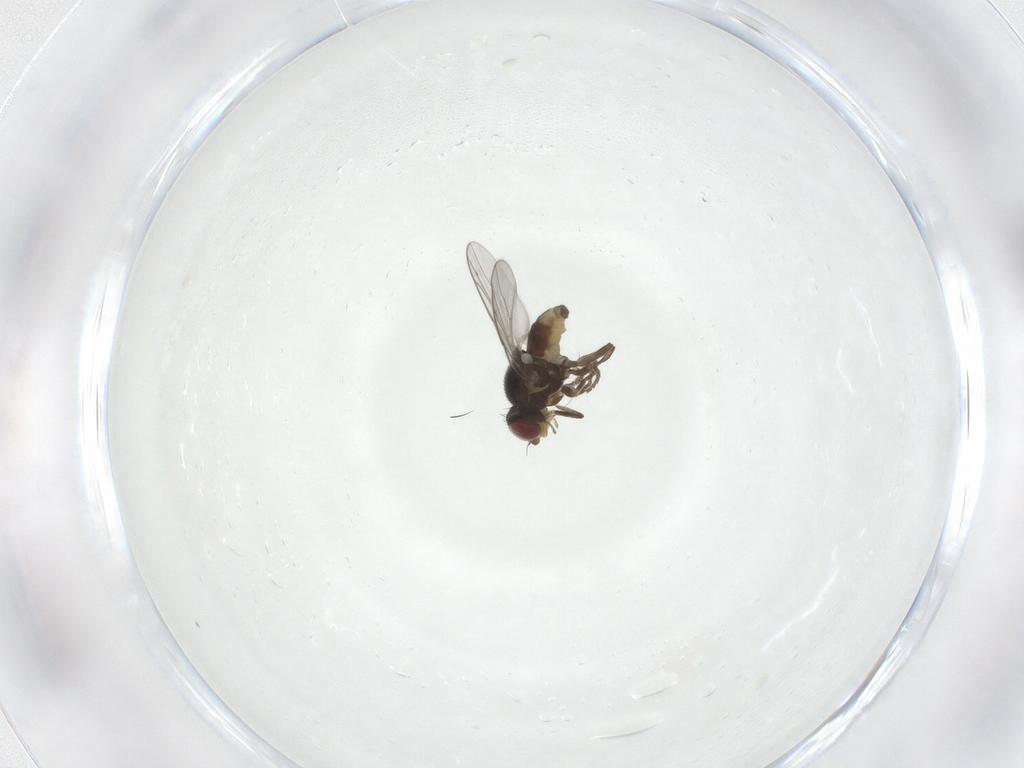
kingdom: Animalia
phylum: Arthropoda
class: Insecta
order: Diptera
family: Chloropidae
